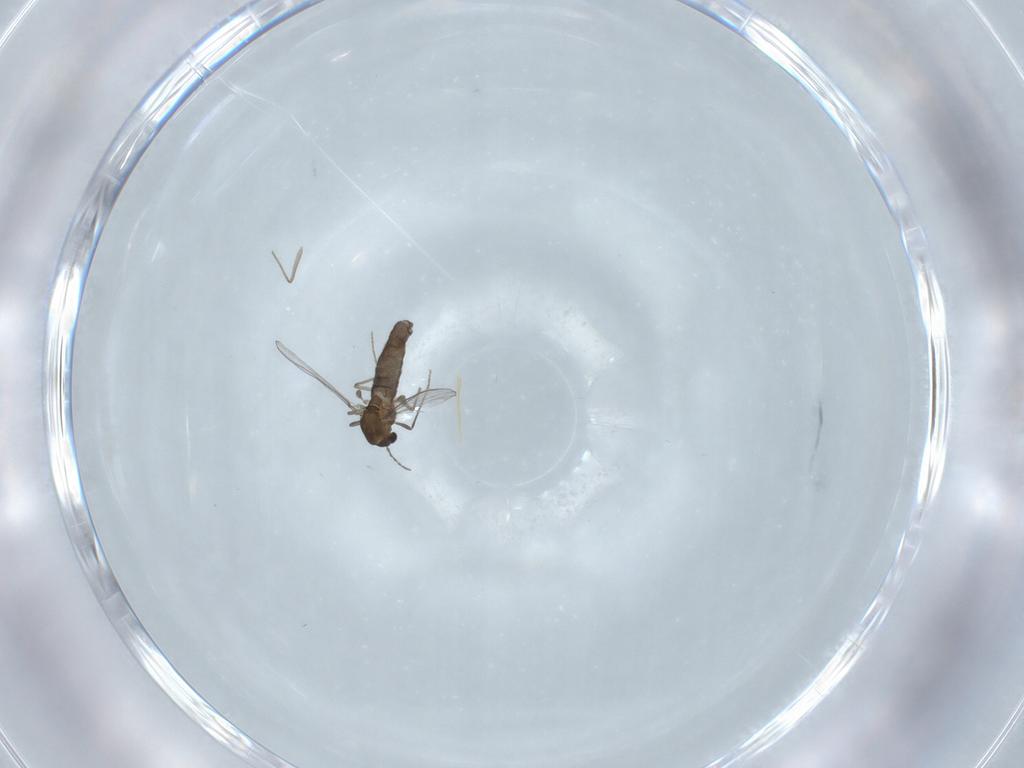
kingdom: Animalia
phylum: Arthropoda
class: Insecta
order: Diptera
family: Chironomidae
